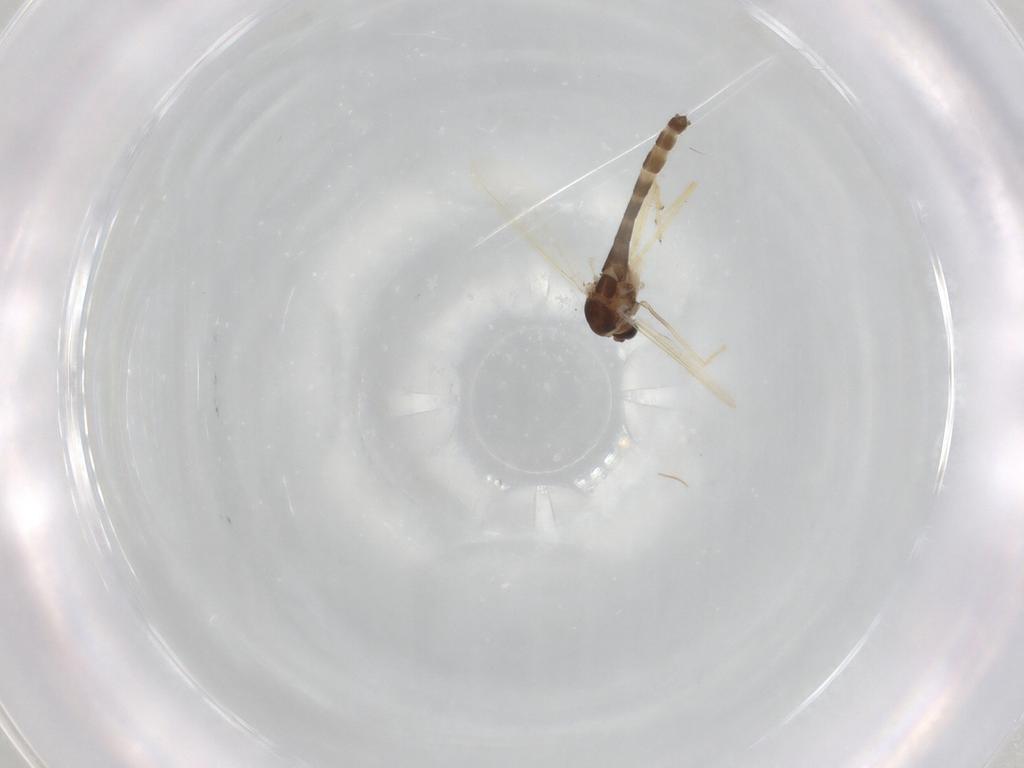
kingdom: Animalia
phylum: Arthropoda
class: Insecta
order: Diptera
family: Chironomidae
